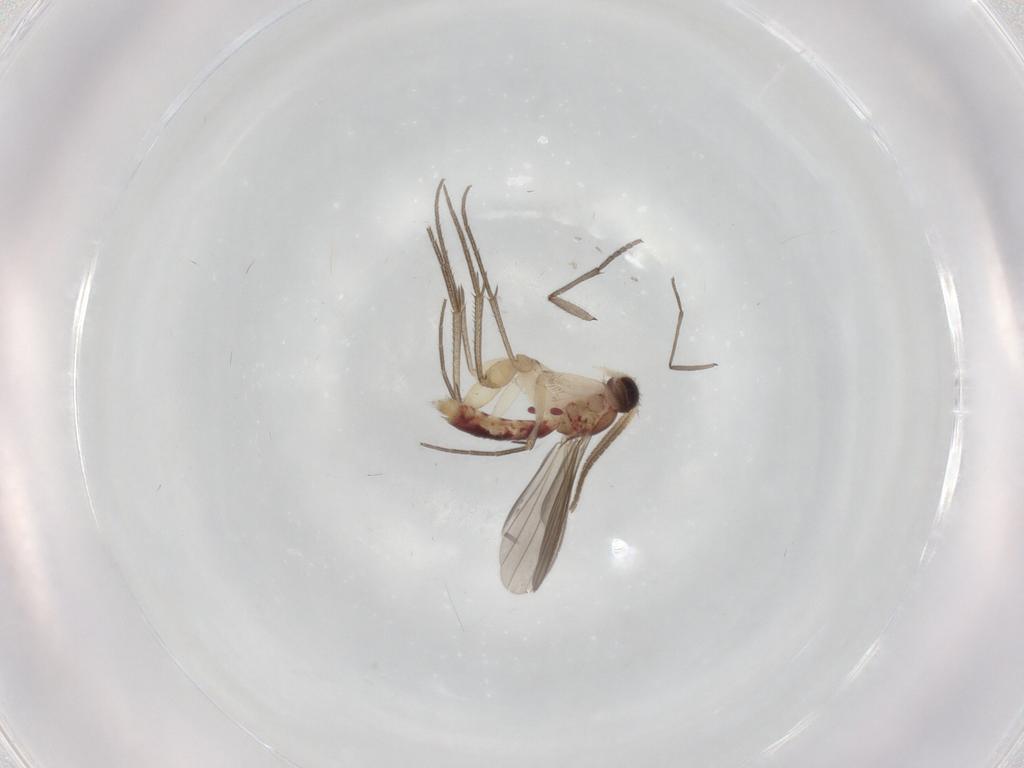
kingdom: Animalia
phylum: Arthropoda
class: Insecta
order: Diptera
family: Mycetophilidae
